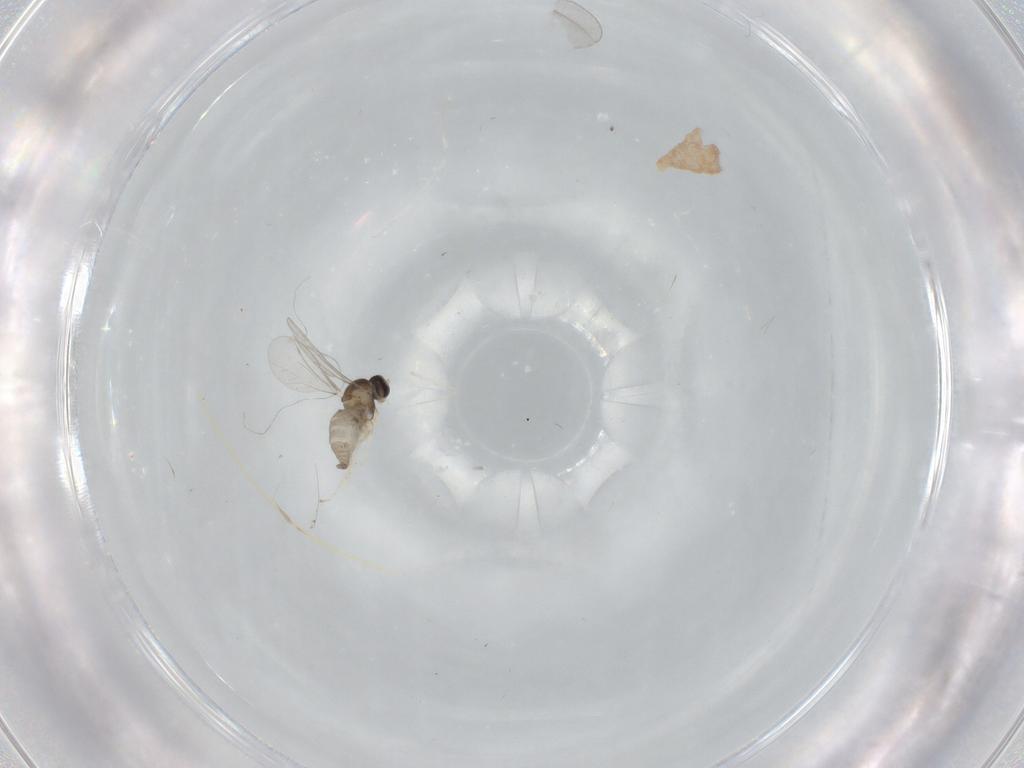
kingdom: Animalia
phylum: Arthropoda
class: Insecta
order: Diptera
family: Cecidomyiidae
